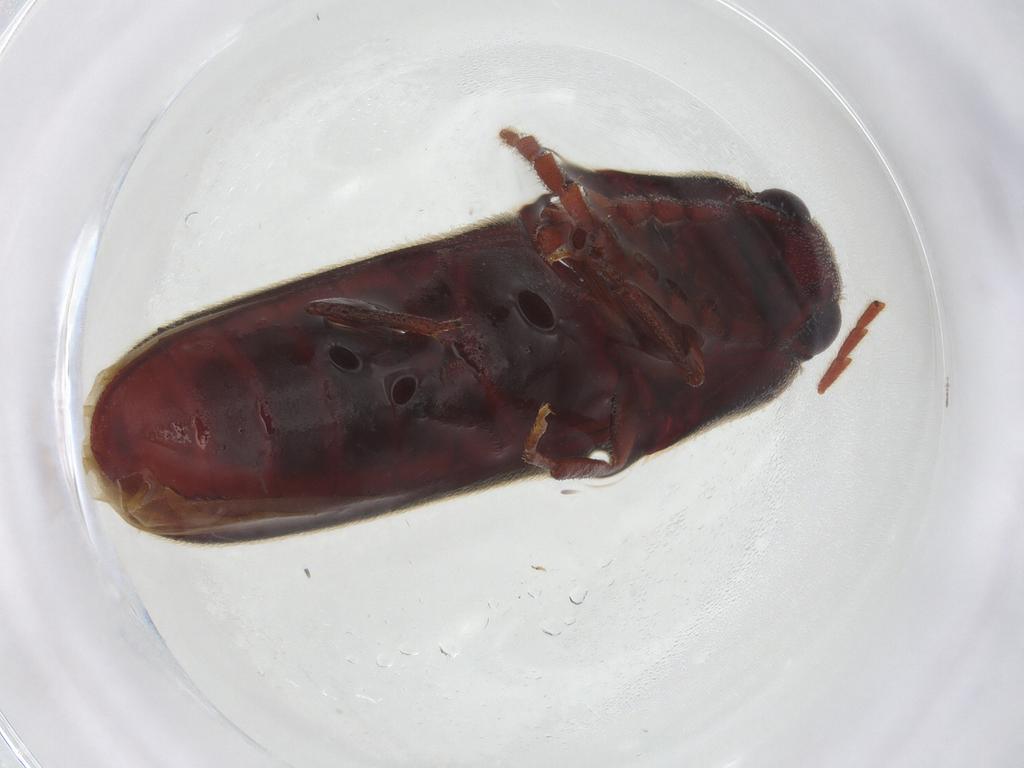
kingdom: Animalia
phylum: Arthropoda
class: Insecta
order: Coleoptera
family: Eucnemidae
